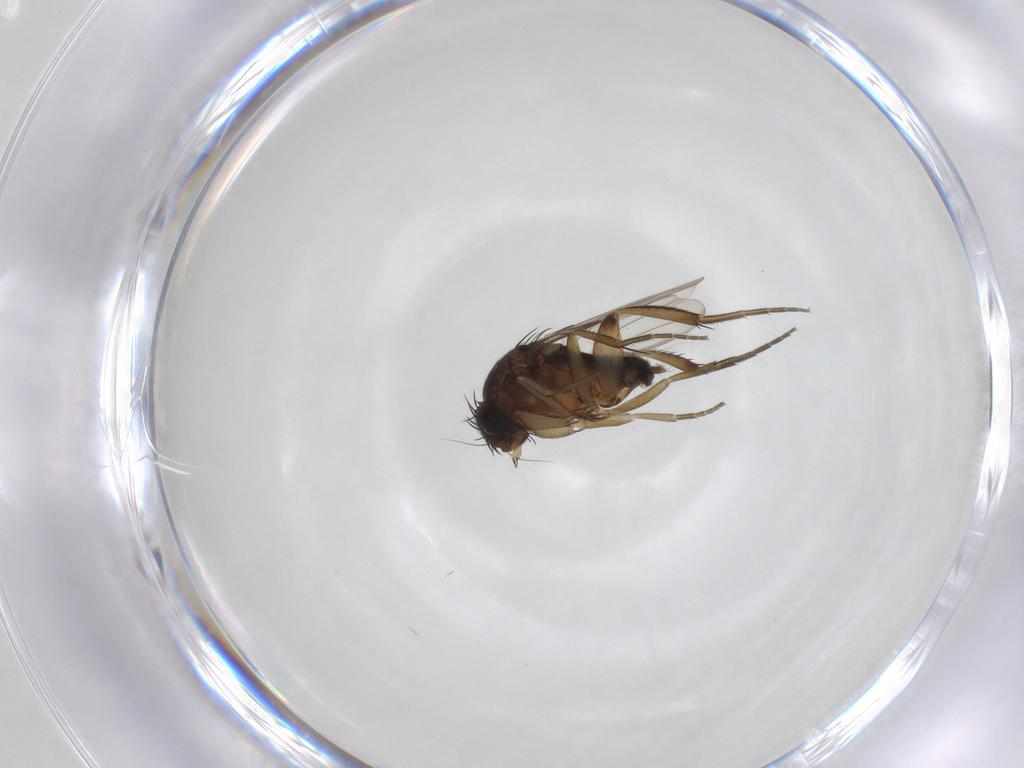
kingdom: Animalia
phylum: Arthropoda
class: Insecta
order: Diptera
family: Phoridae
